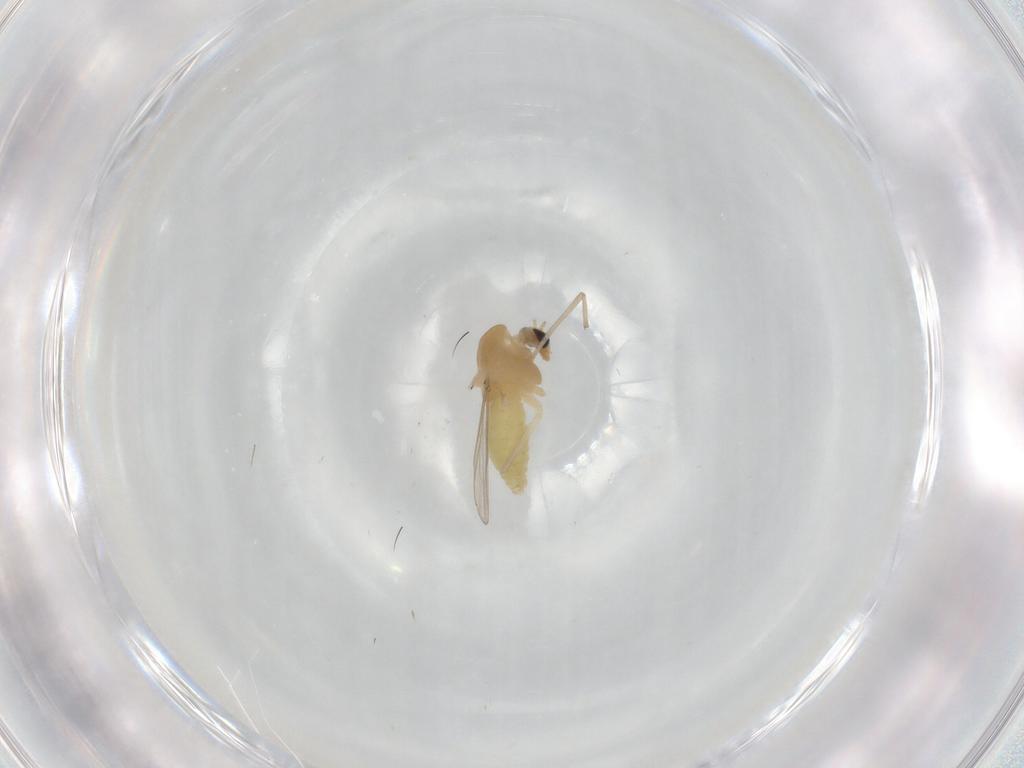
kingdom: Animalia
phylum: Arthropoda
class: Insecta
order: Diptera
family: Chironomidae
